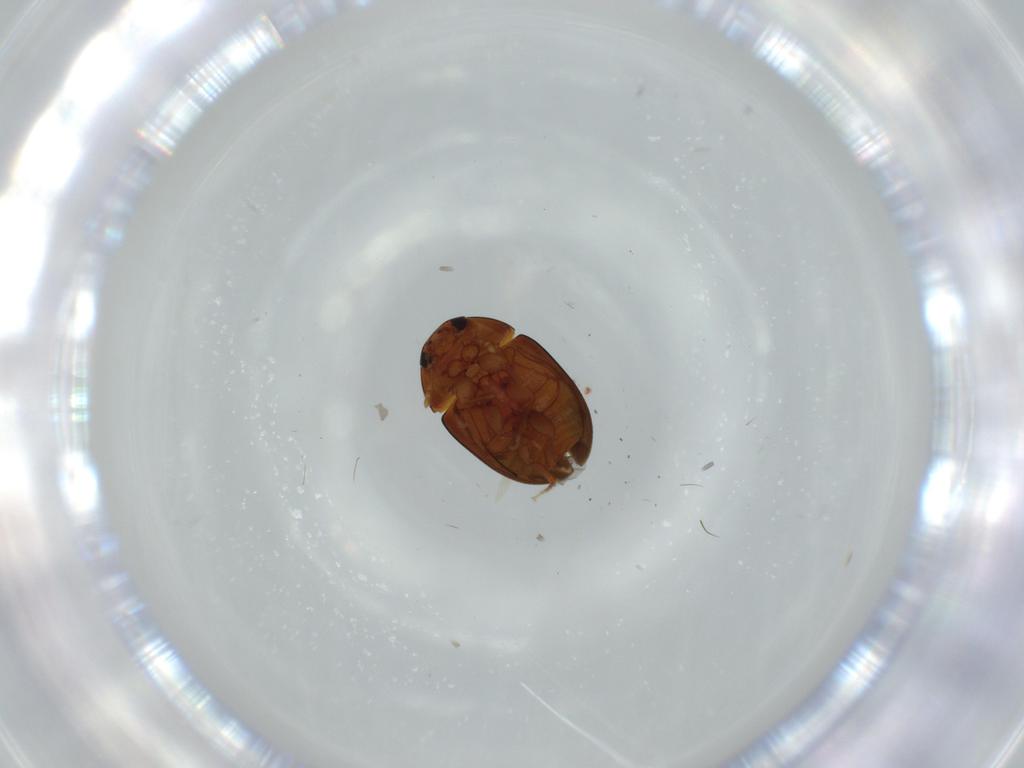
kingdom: Animalia
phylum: Arthropoda
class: Insecta
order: Coleoptera
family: Phalacridae
